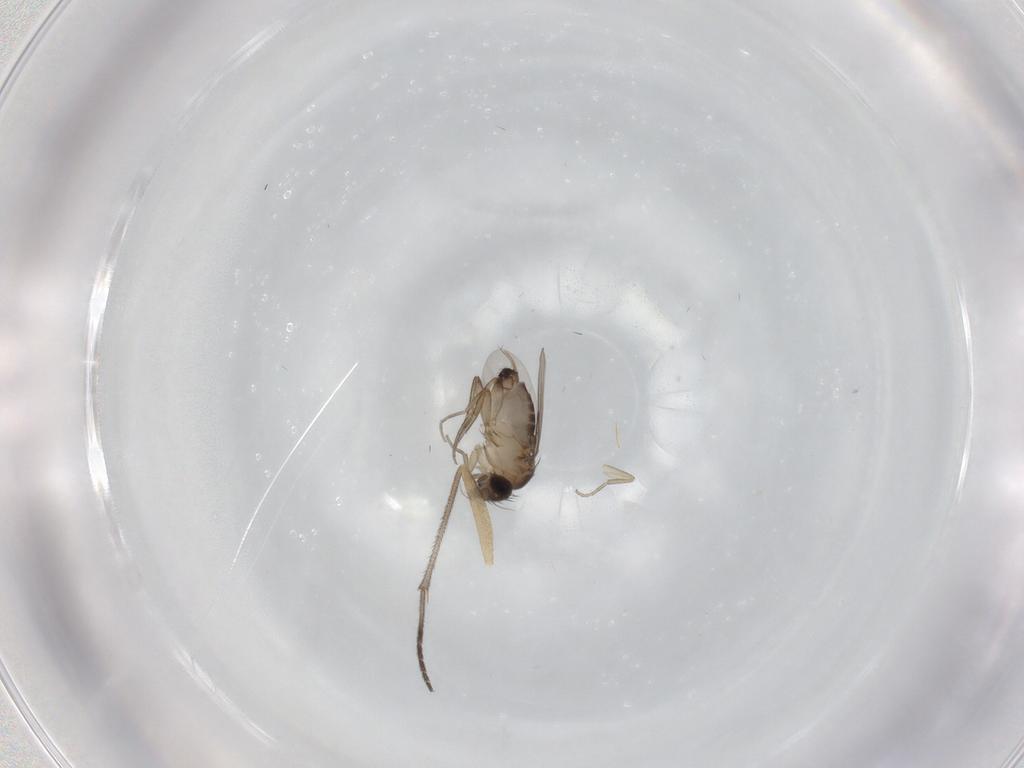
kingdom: Animalia
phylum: Arthropoda
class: Insecta
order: Diptera
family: Sciaridae
